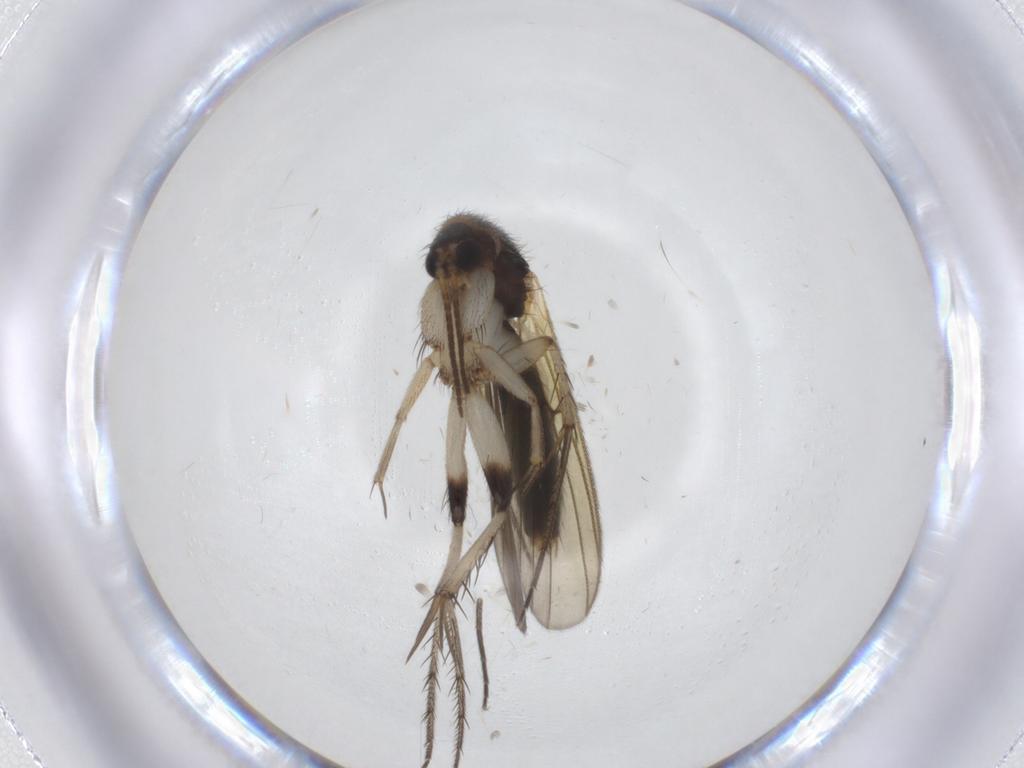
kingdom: Animalia
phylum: Arthropoda
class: Insecta
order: Diptera
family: Mycetophilidae
